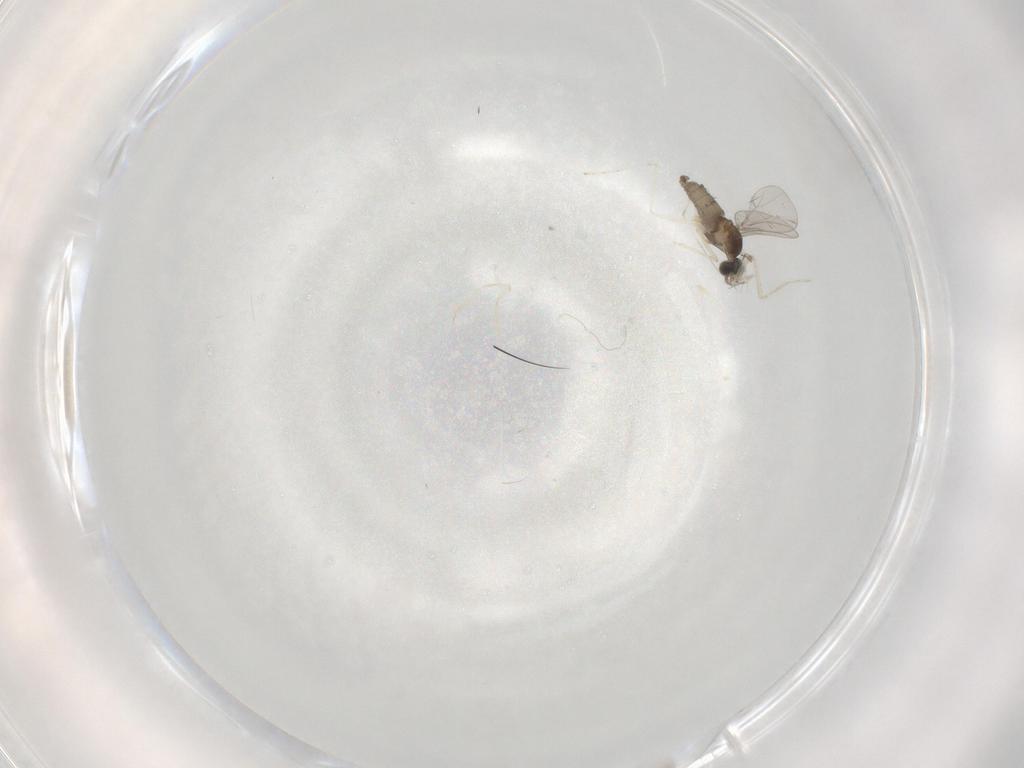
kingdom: Animalia
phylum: Arthropoda
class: Insecta
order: Diptera
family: Cecidomyiidae
